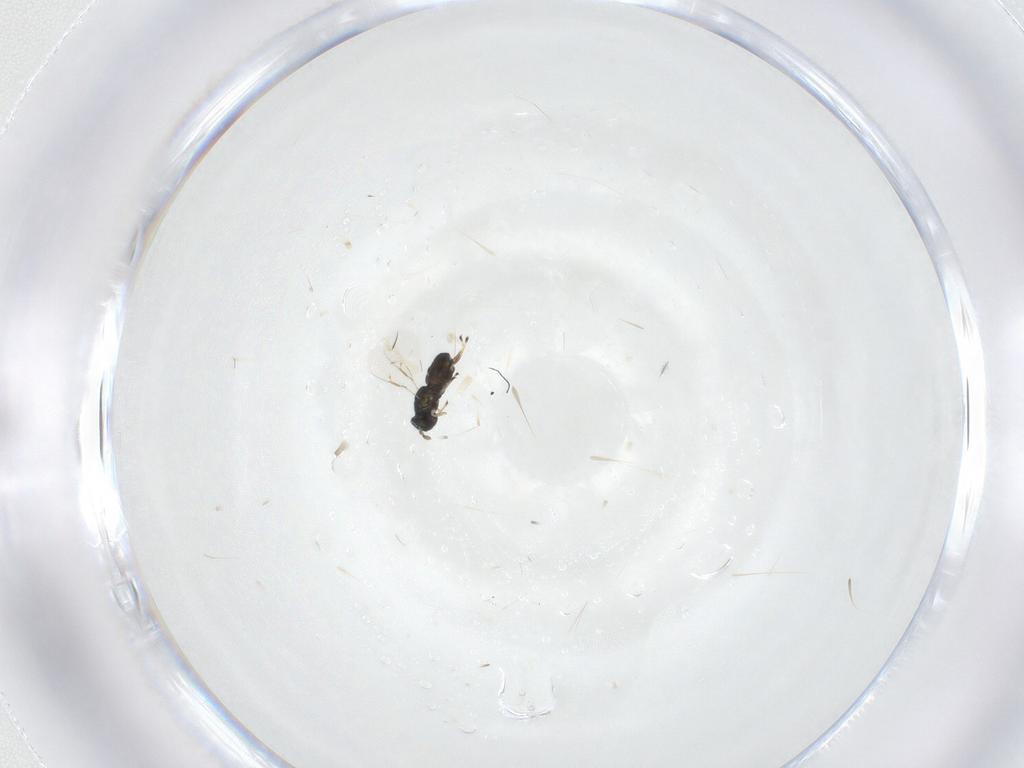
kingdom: Animalia
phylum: Arthropoda
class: Insecta
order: Hymenoptera
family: Eulophidae
